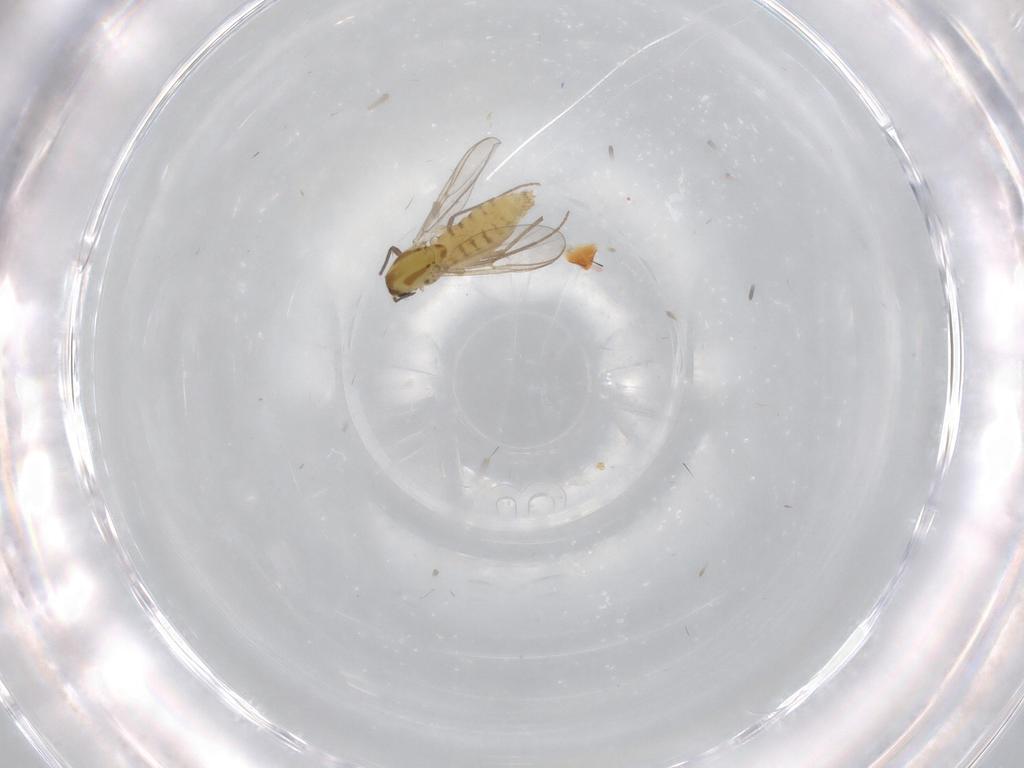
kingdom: Animalia
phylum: Arthropoda
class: Insecta
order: Diptera
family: Chironomidae
